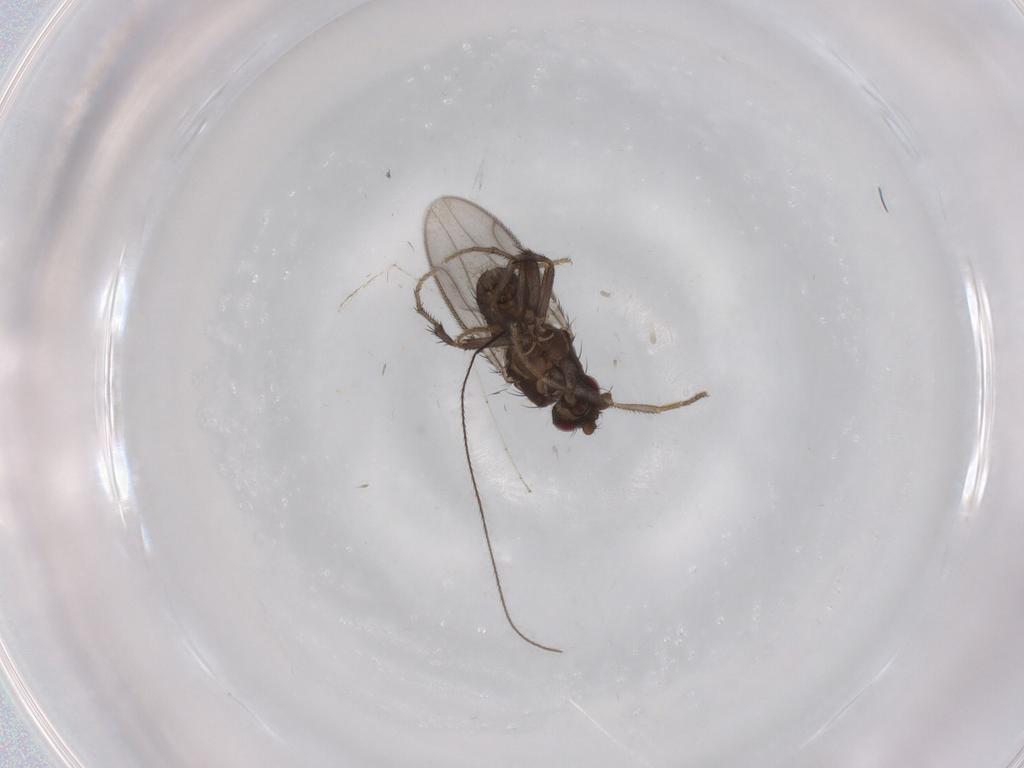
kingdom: Animalia
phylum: Arthropoda
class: Insecta
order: Diptera
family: Sphaeroceridae
